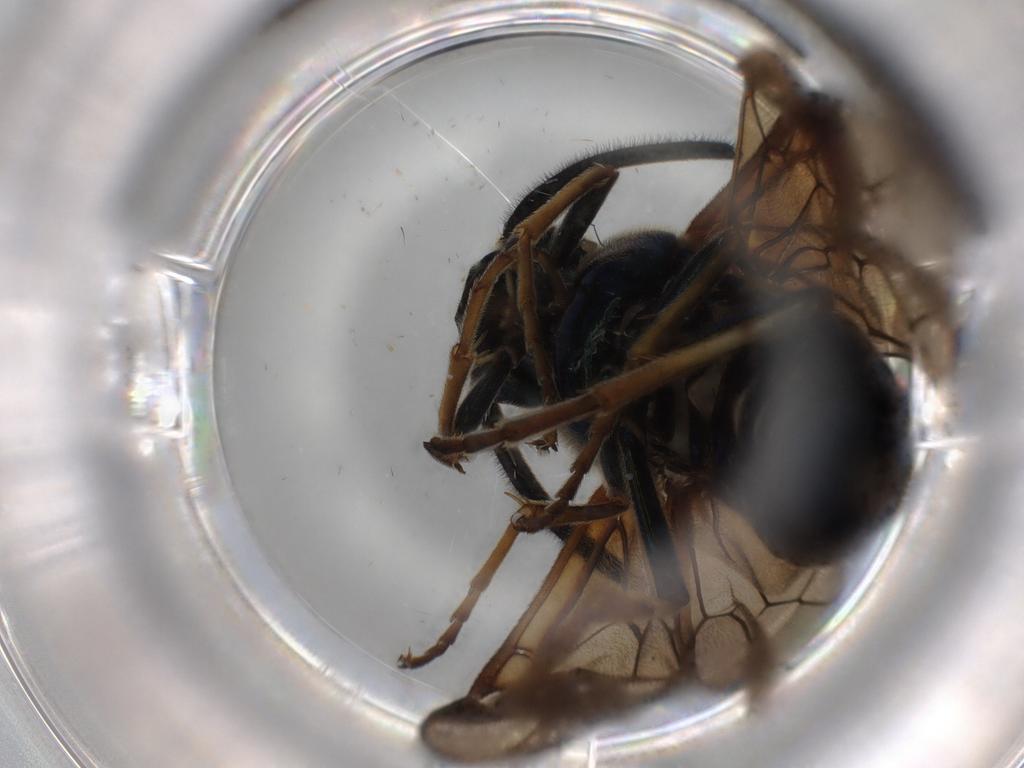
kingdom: Animalia
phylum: Arthropoda
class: Insecta
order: Hymenoptera
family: Argidae
